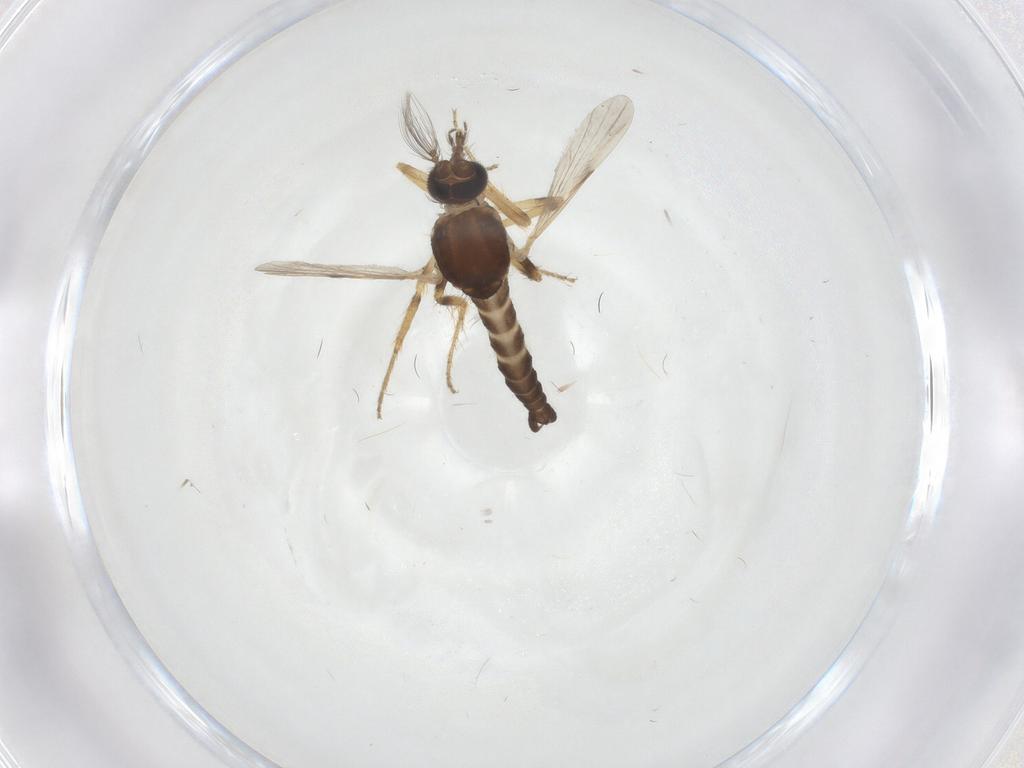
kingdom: Animalia
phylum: Arthropoda
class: Insecta
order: Diptera
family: Ceratopogonidae
